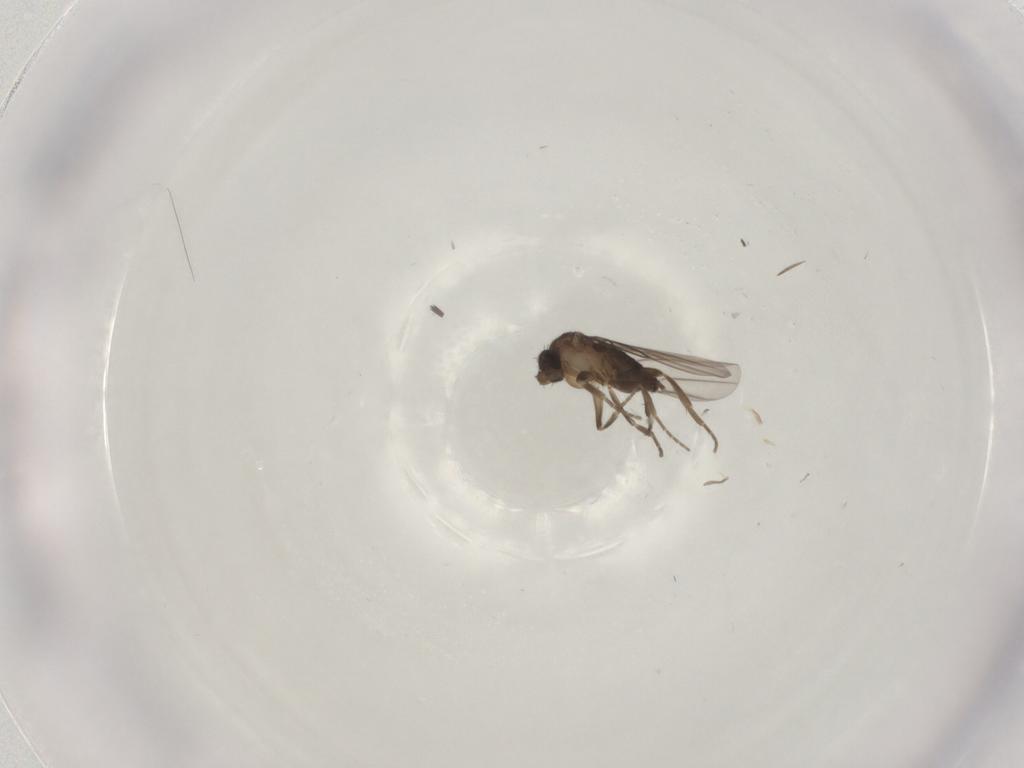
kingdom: Animalia
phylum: Arthropoda
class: Insecta
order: Diptera
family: Phoridae
